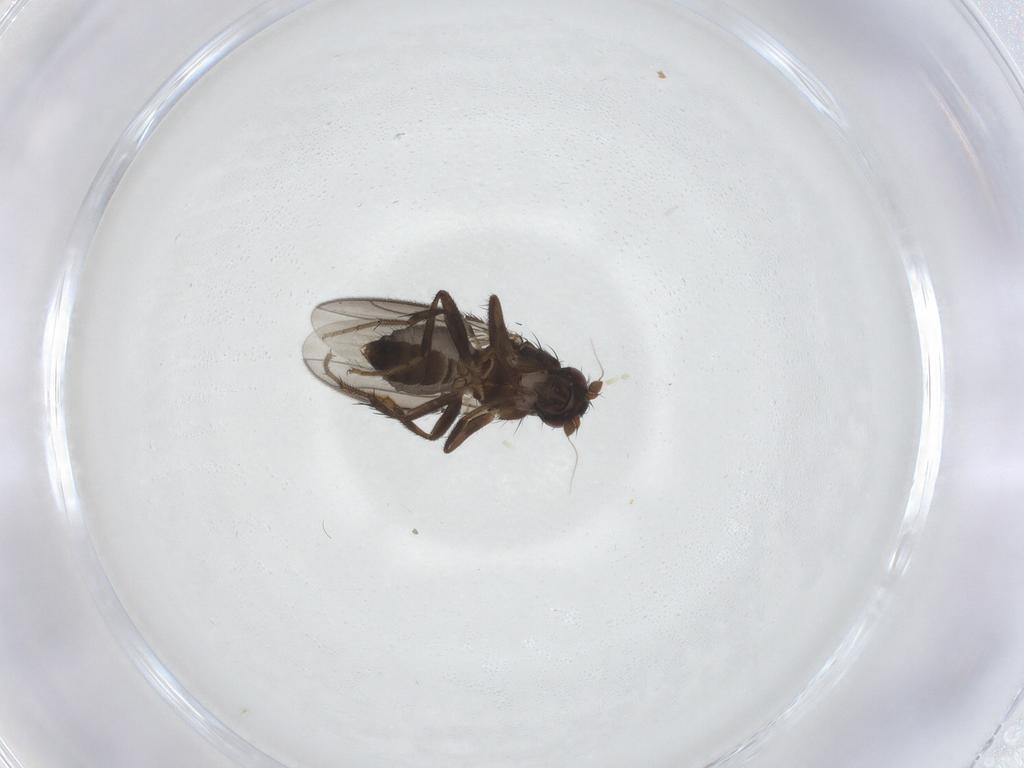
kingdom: Animalia
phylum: Arthropoda
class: Insecta
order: Diptera
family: Sphaeroceridae
